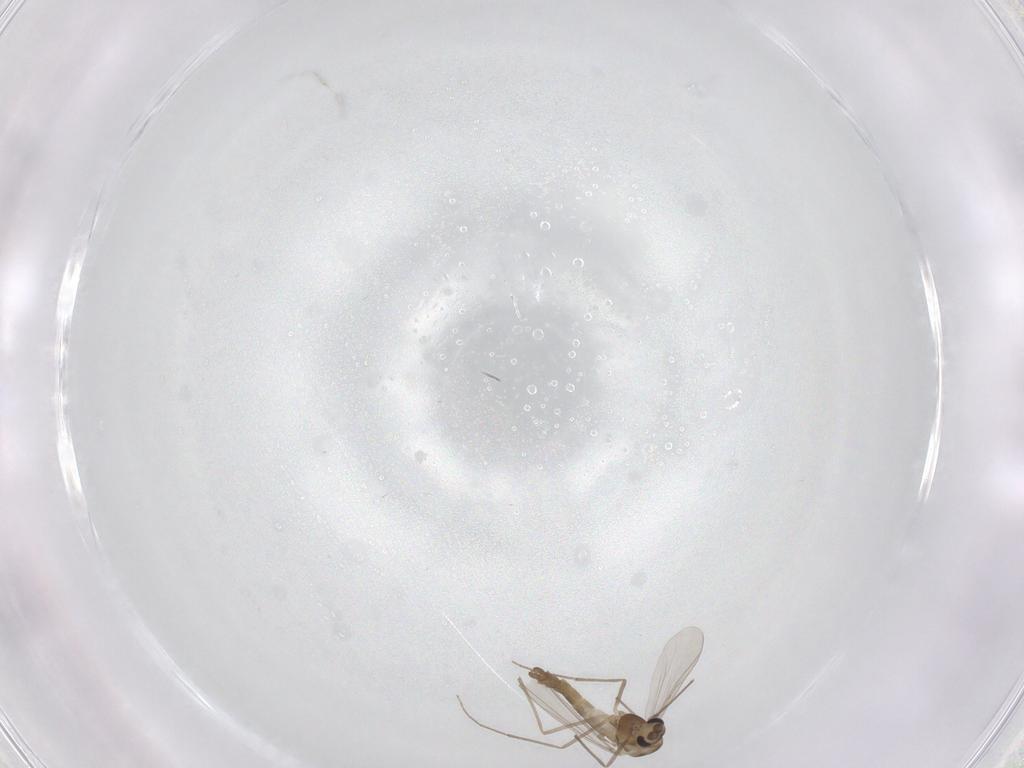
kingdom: Animalia
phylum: Arthropoda
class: Insecta
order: Diptera
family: Chironomidae
